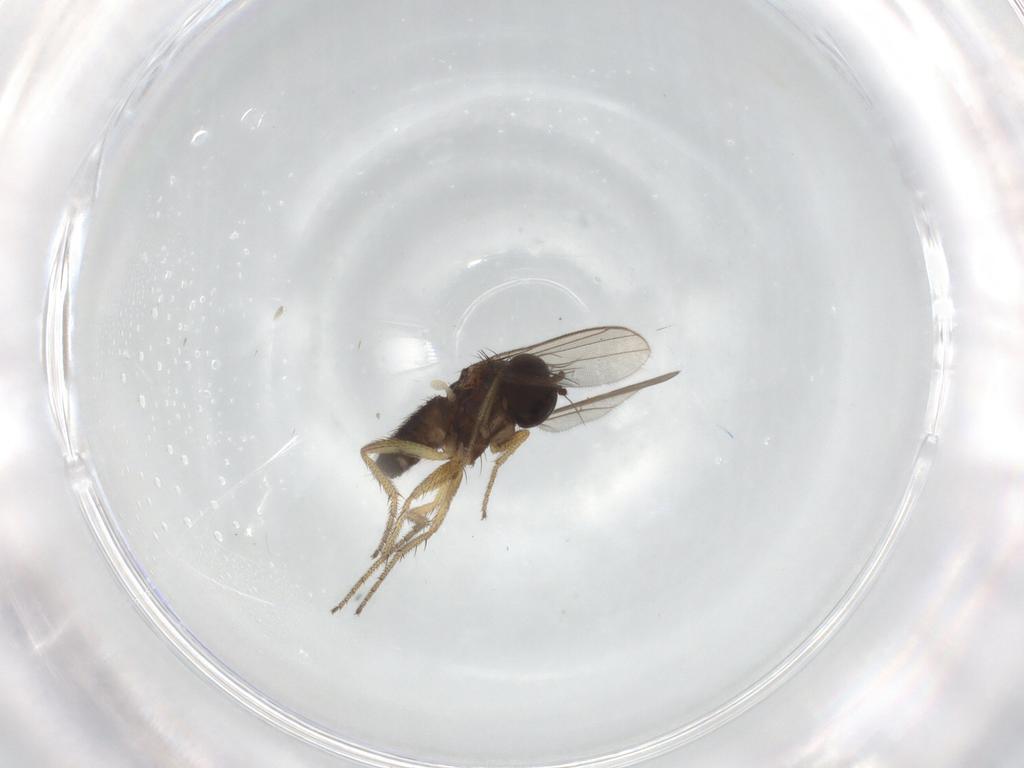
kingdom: Animalia
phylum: Arthropoda
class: Insecta
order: Diptera
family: Dolichopodidae
